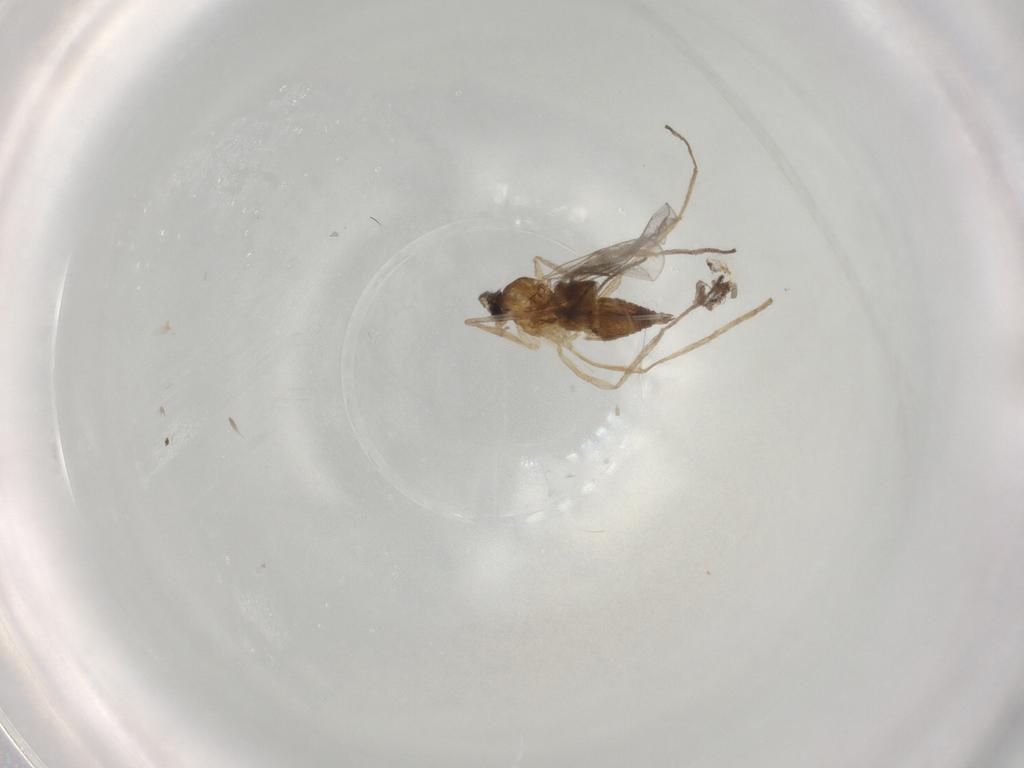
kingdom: Animalia
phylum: Arthropoda
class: Insecta
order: Diptera
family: Cecidomyiidae
